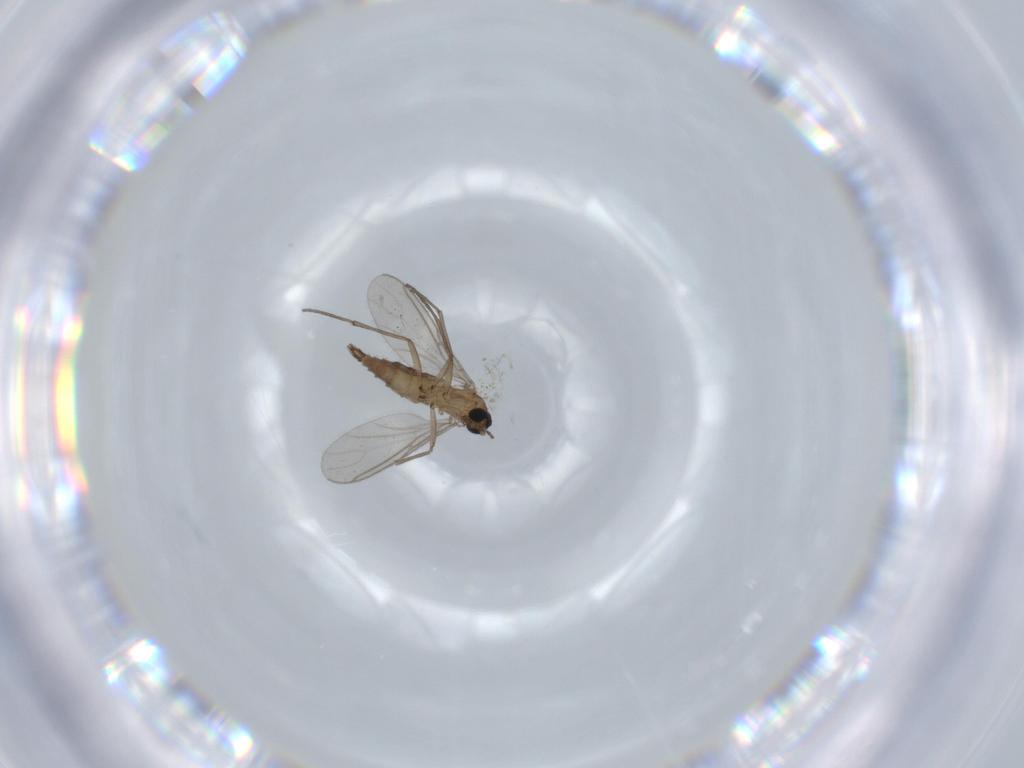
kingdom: Animalia
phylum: Arthropoda
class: Insecta
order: Diptera
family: Sciaridae
